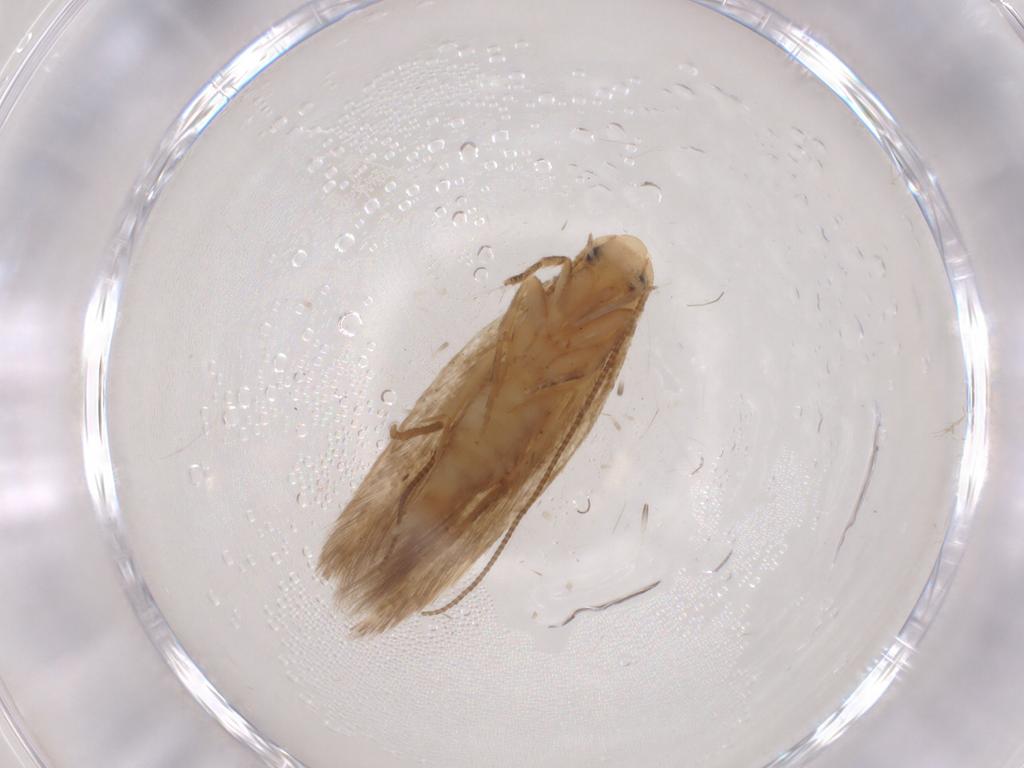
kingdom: Animalia
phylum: Arthropoda
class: Insecta
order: Lepidoptera
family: Tineidae
